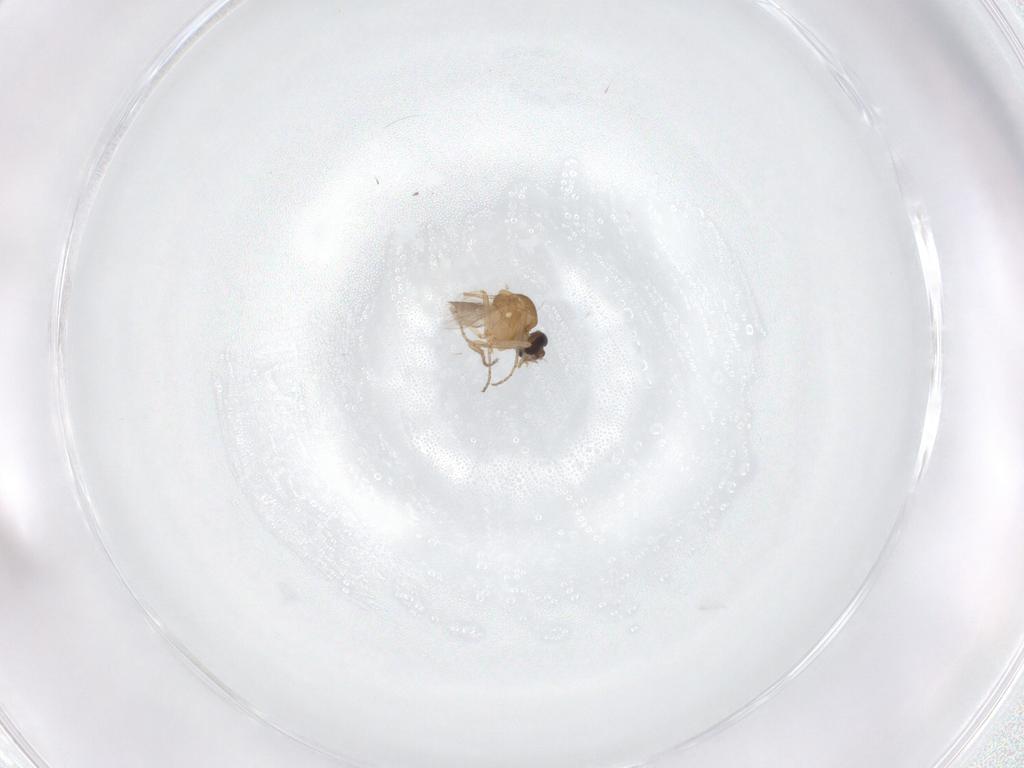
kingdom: Animalia
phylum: Arthropoda
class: Insecta
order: Diptera
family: Ceratopogonidae
